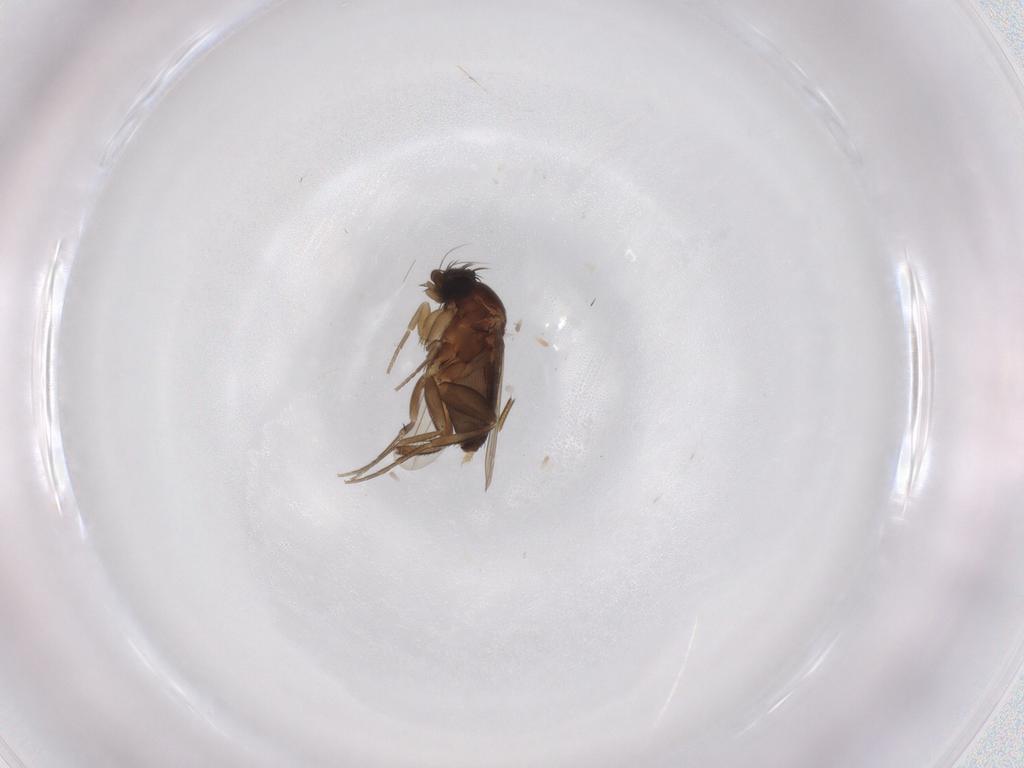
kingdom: Animalia
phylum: Arthropoda
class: Insecta
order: Diptera
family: Phoridae
